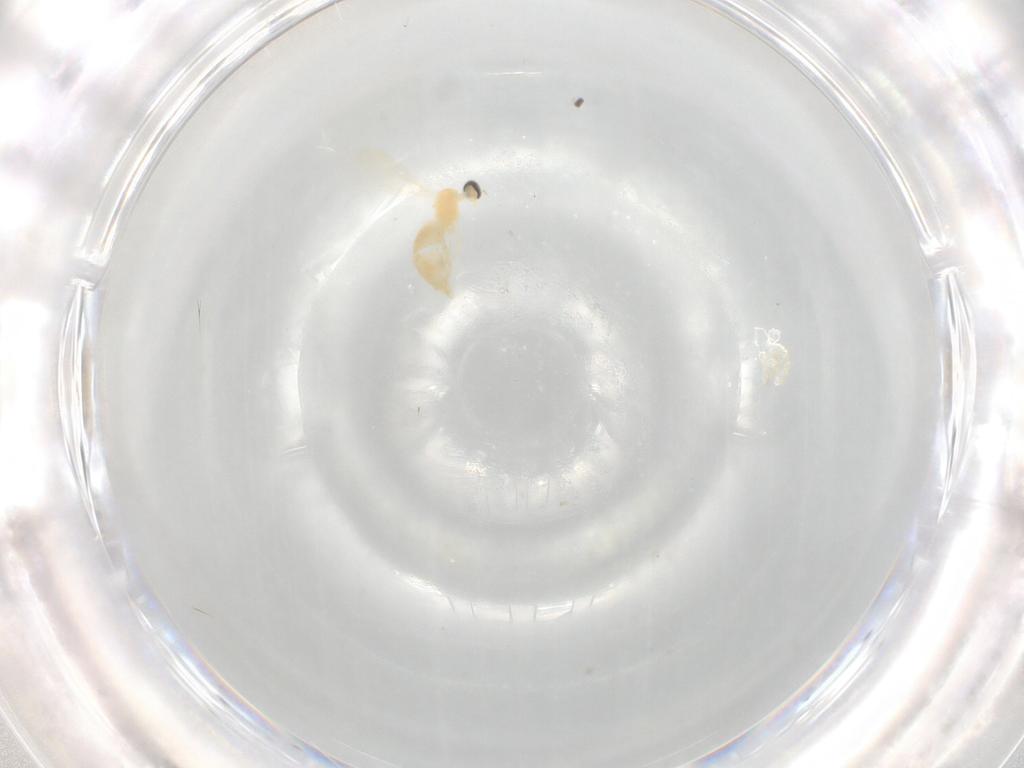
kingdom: Animalia
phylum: Arthropoda
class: Insecta
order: Diptera
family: Cecidomyiidae
